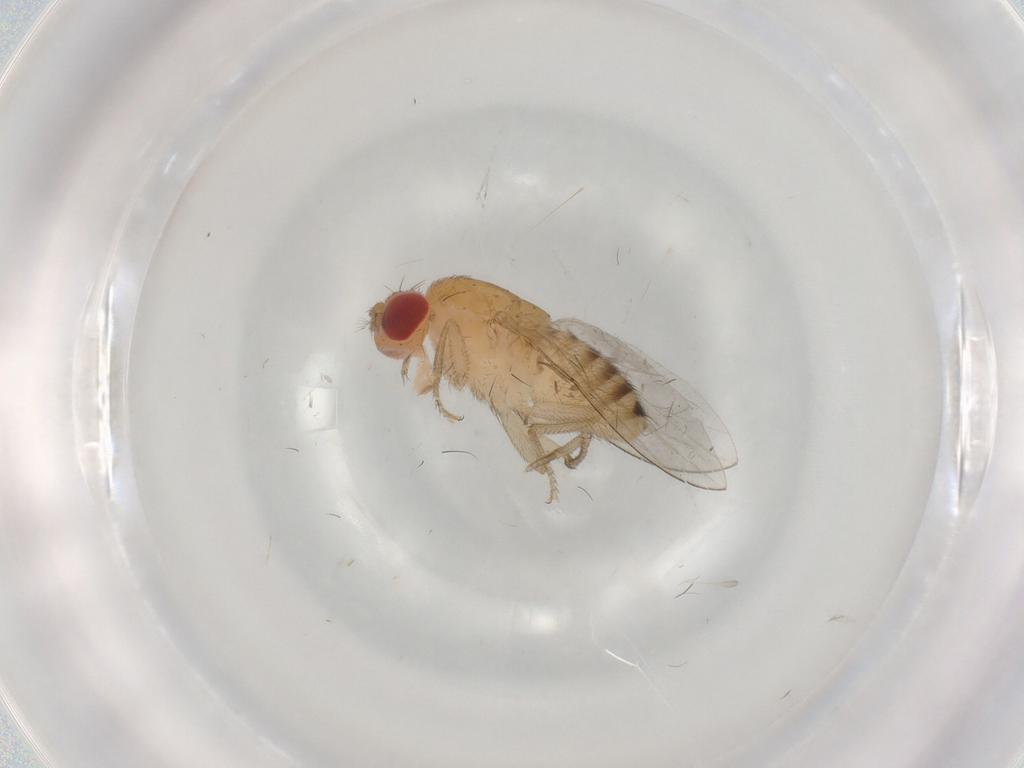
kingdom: Animalia
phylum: Arthropoda
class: Insecta
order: Diptera
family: Drosophilidae
